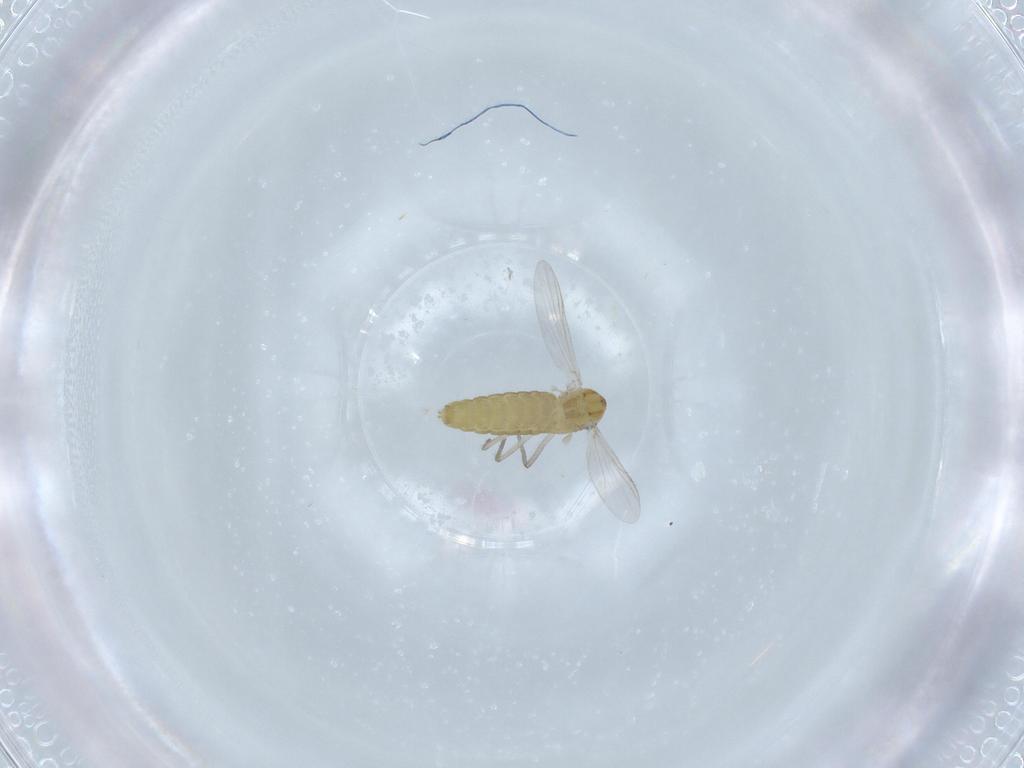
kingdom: Animalia
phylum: Arthropoda
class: Insecta
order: Diptera
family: Chironomidae
